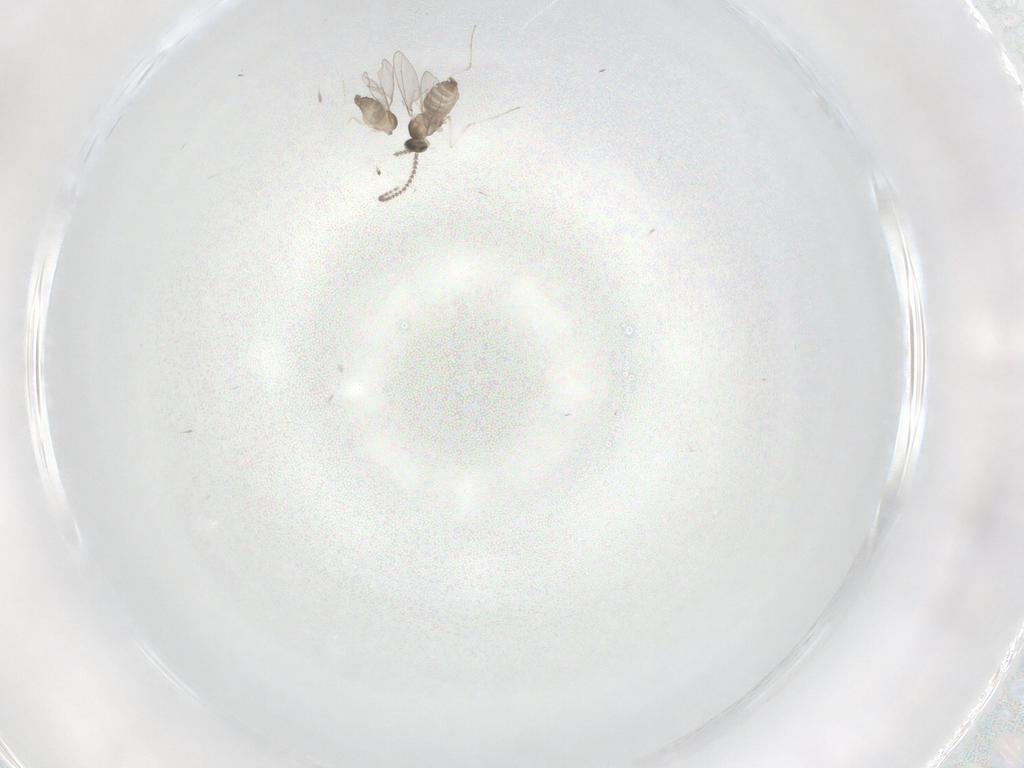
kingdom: Animalia
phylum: Arthropoda
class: Insecta
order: Diptera
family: Cecidomyiidae
